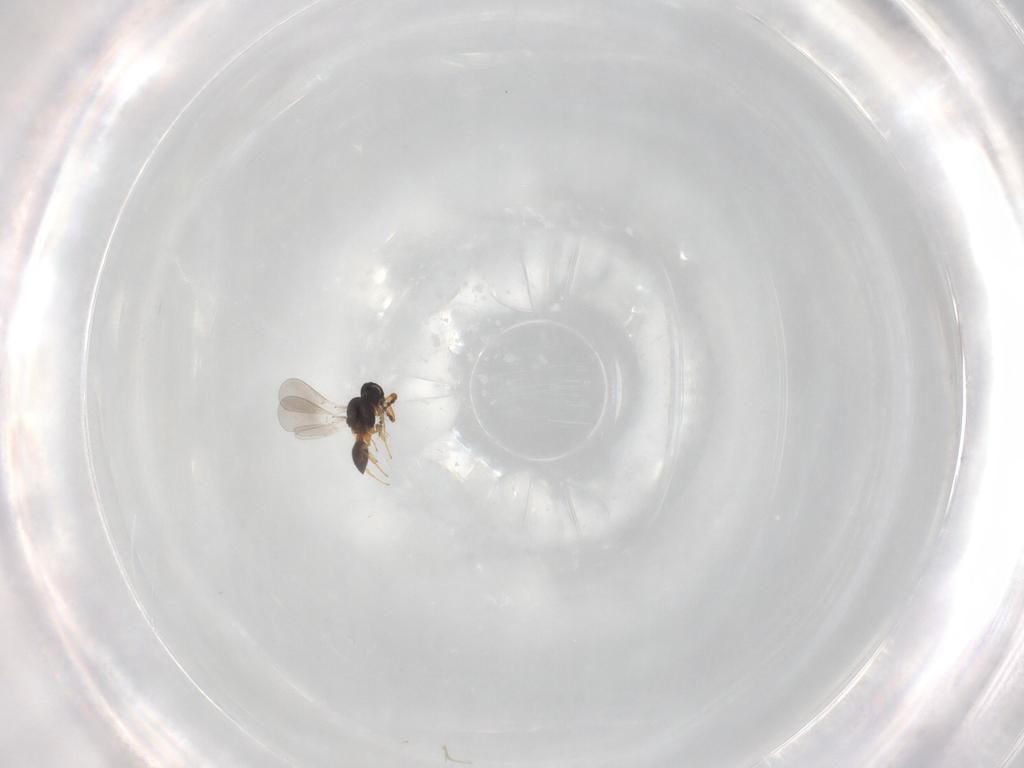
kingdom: Animalia
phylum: Arthropoda
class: Insecta
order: Hymenoptera
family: Platygastridae
